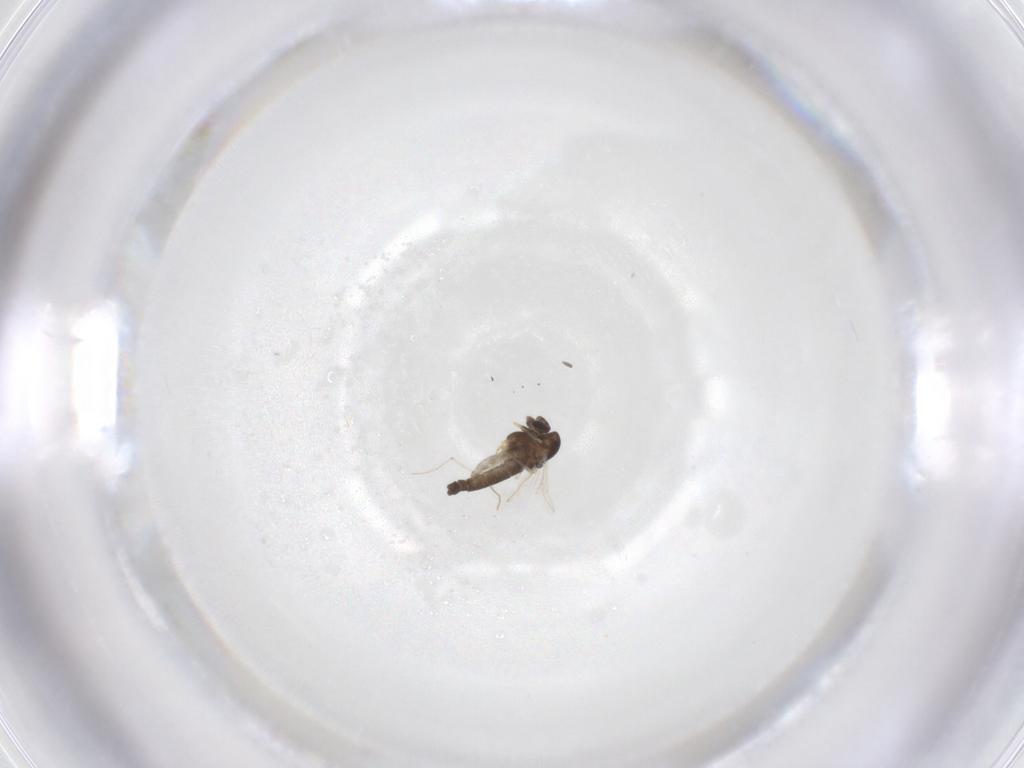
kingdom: Animalia
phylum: Arthropoda
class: Insecta
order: Diptera
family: Chironomidae
